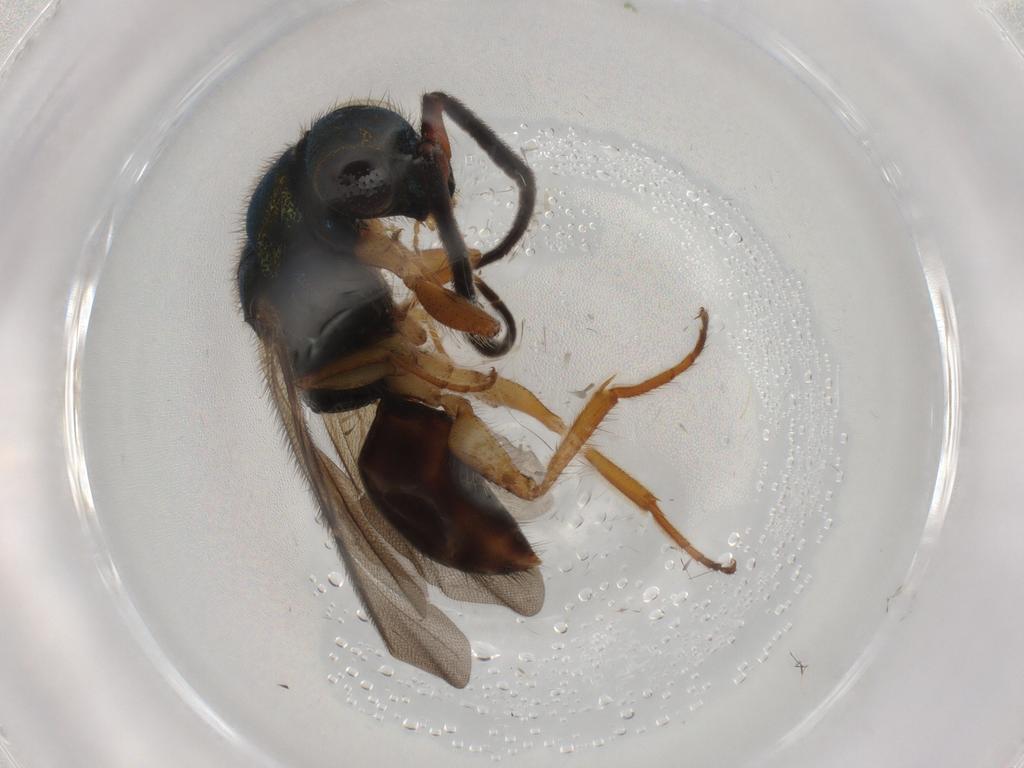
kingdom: Animalia
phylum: Arthropoda
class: Insecta
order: Hymenoptera
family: Chrysididae
